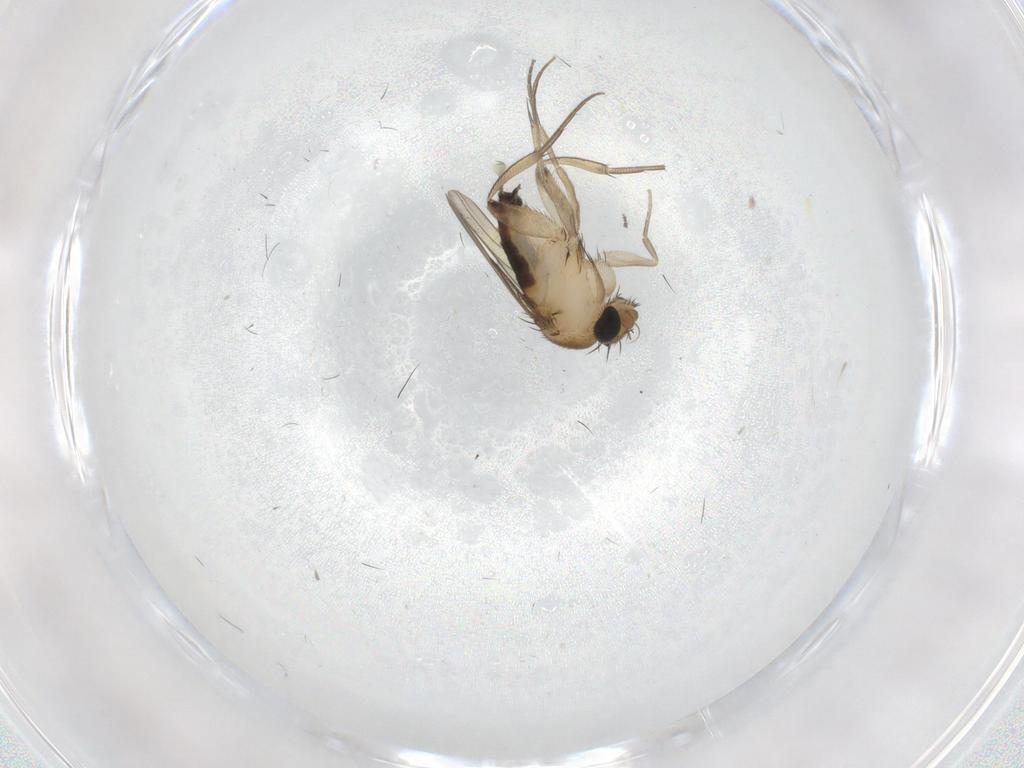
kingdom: Animalia
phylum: Arthropoda
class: Insecta
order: Diptera
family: Phoridae
